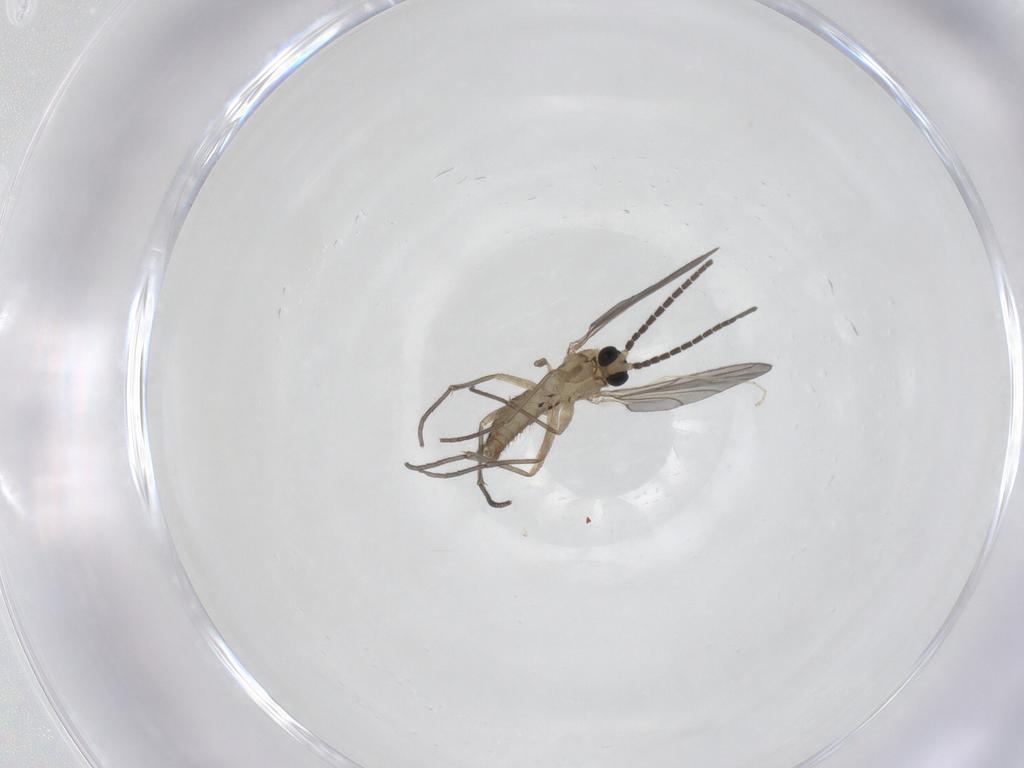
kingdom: Animalia
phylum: Arthropoda
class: Insecta
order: Diptera
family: Sciaridae
